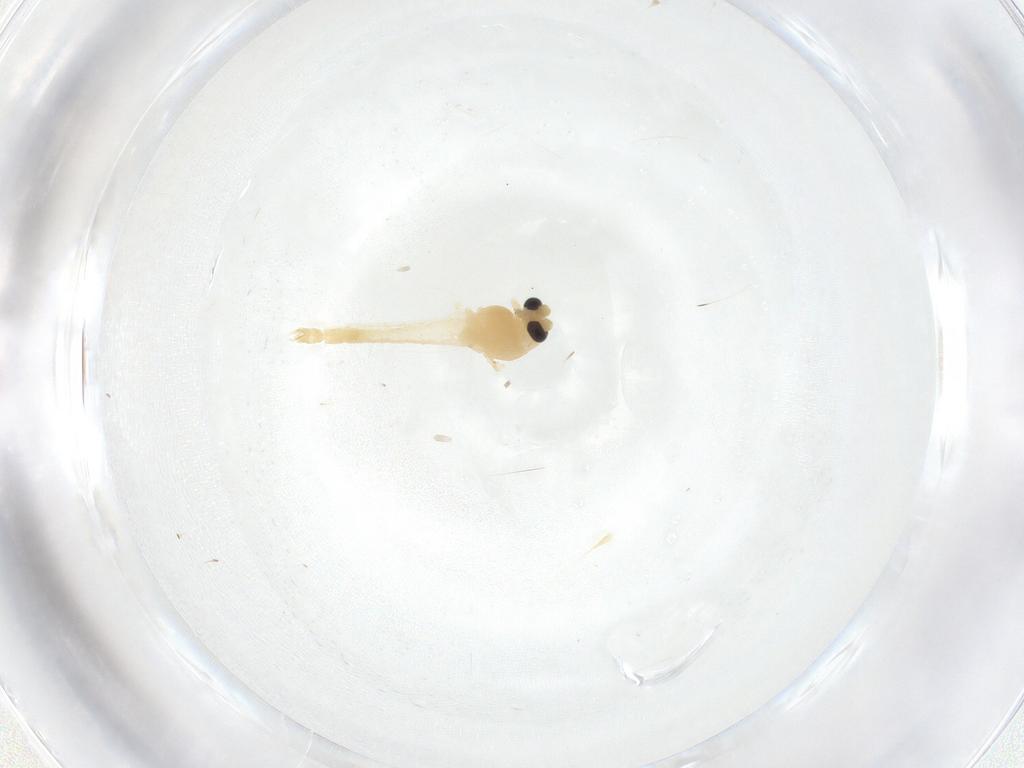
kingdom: Animalia
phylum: Arthropoda
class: Insecta
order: Diptera
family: Chironomidae
